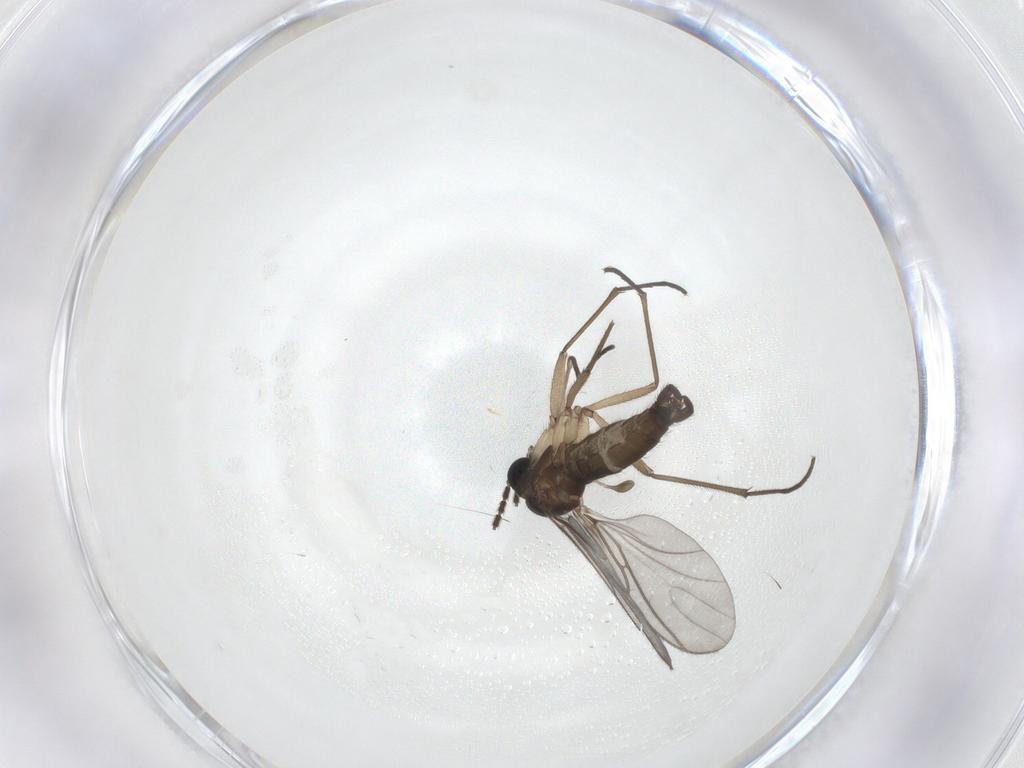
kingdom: Animalia
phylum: Arthropoda
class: Insecta
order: Diptera
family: Sciaridae
